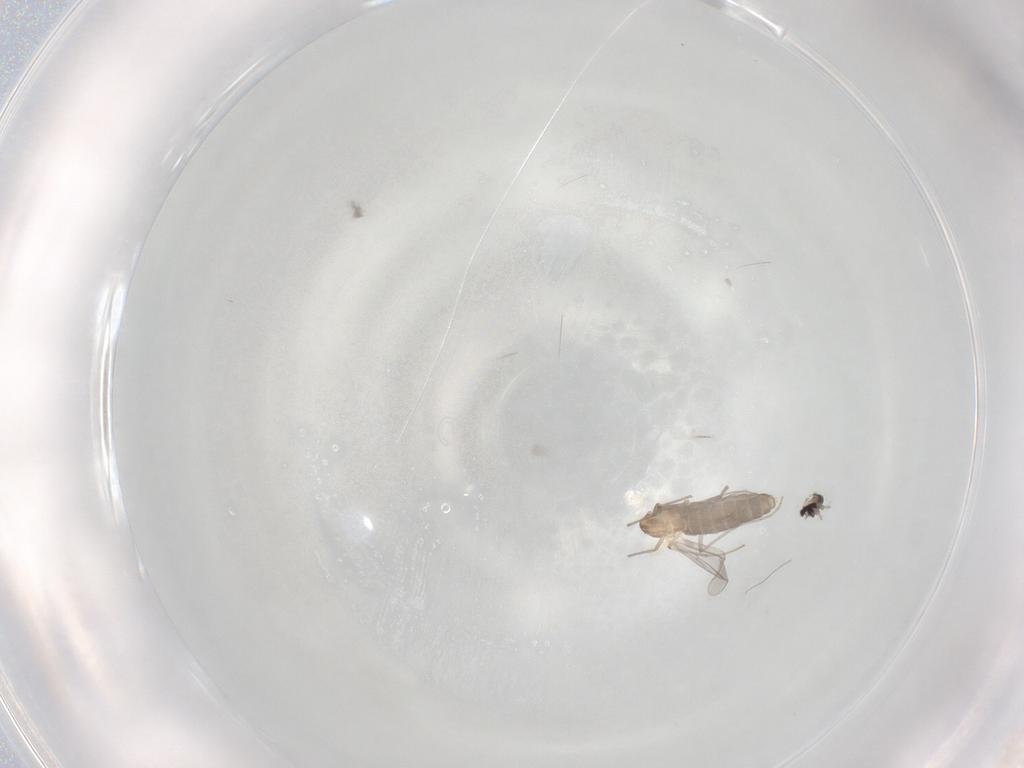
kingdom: Animalia
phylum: Arthropoda
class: Insecta
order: Diptera
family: Chironomidae
